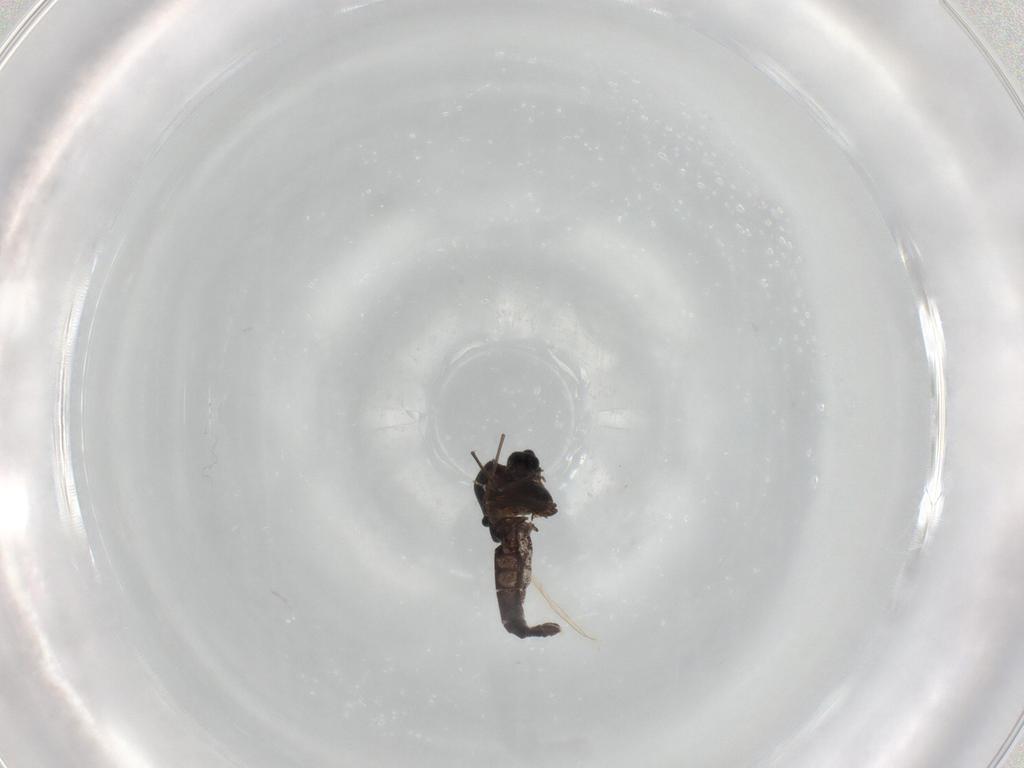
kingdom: Animalia
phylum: Arthropoda
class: Insecta
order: Diptera
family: Chironomidae
